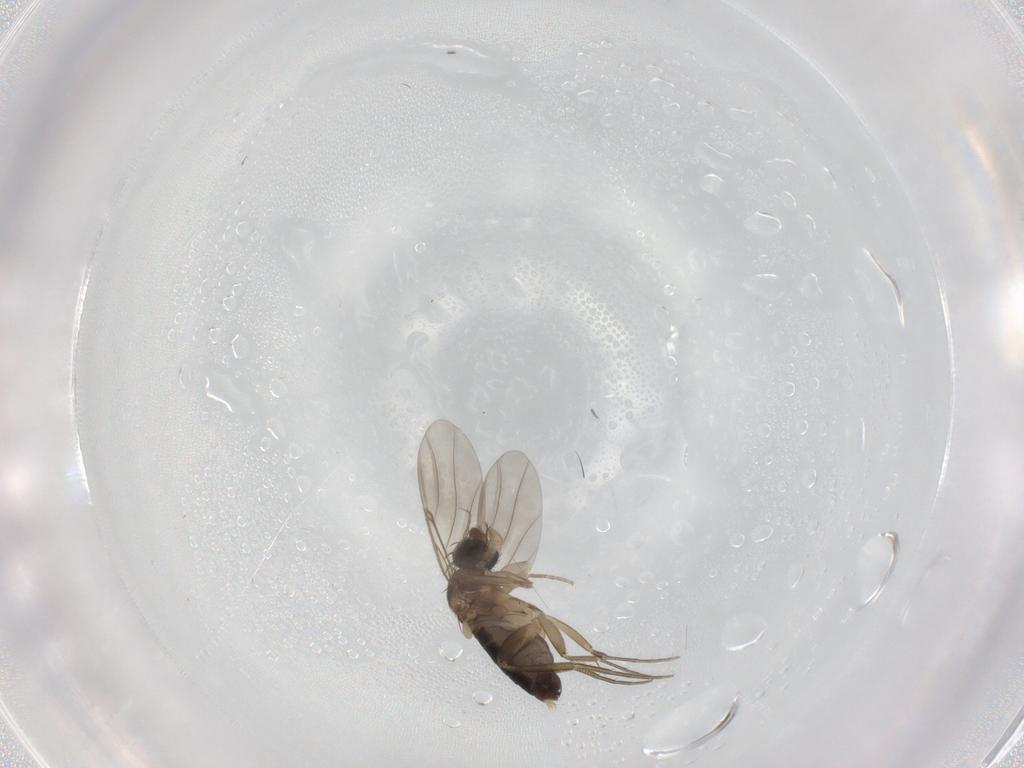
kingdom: Animalia
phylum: Arthropoda
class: Insecta
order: Diptera
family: Phoridae
